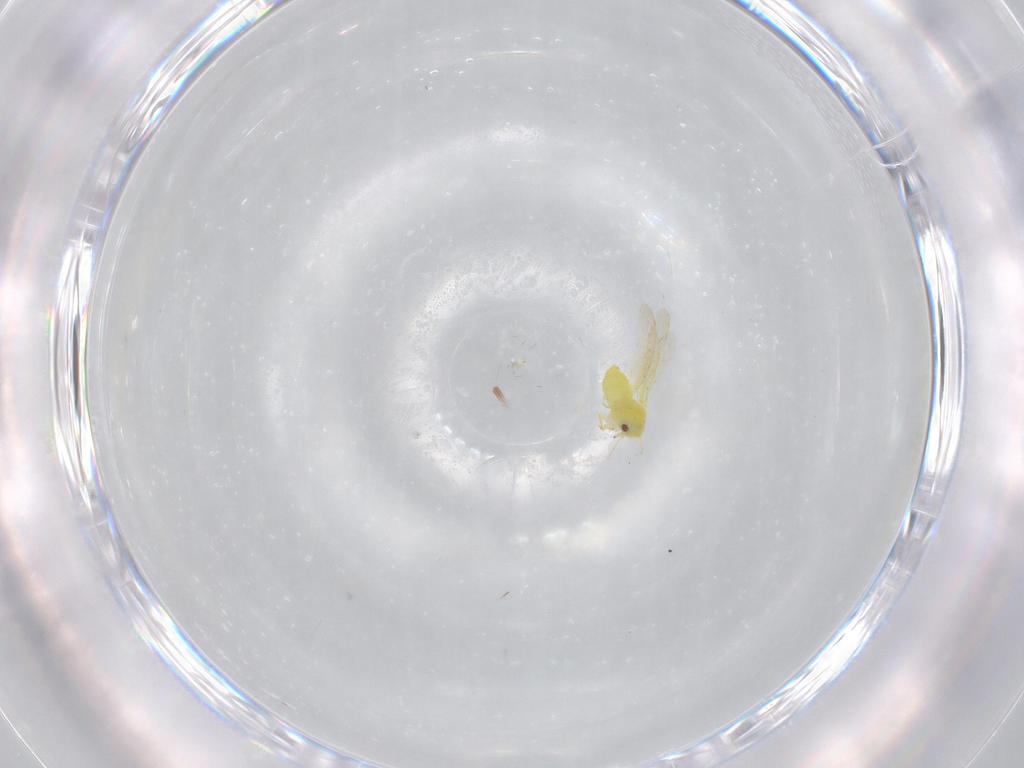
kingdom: Animalia
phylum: Arthropoda
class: Insecta
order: Hemiptera
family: Aleyrodidae
